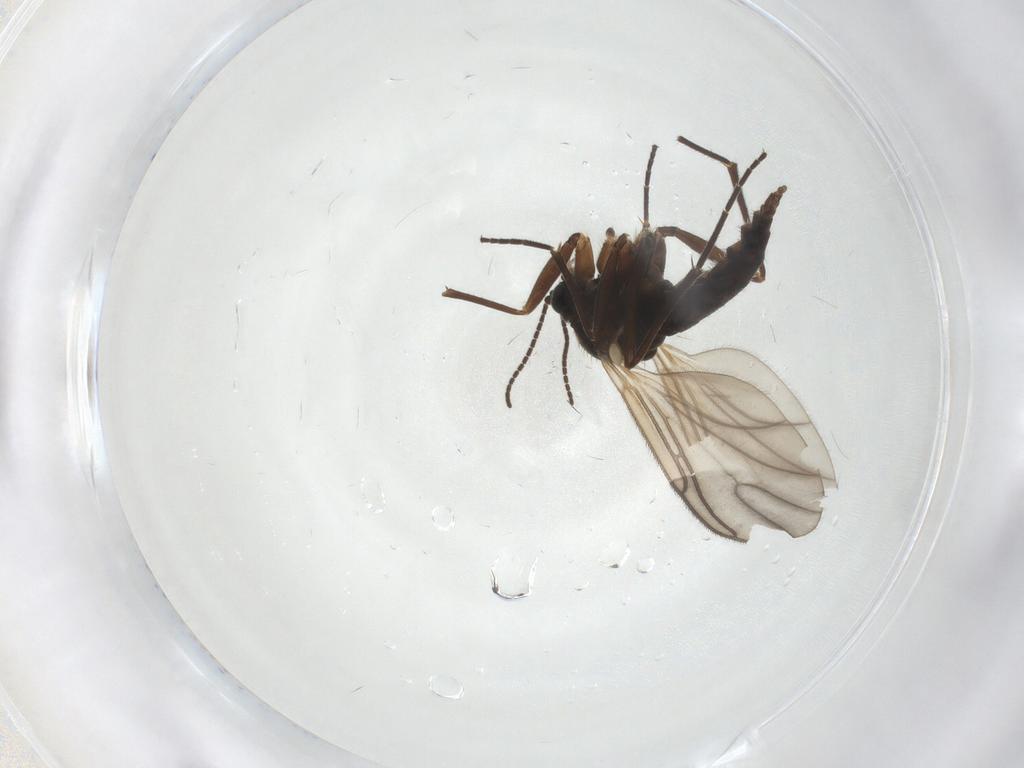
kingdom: Animalia
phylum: Arthropoda
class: Insecta
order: Diptera
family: Sciaridae
